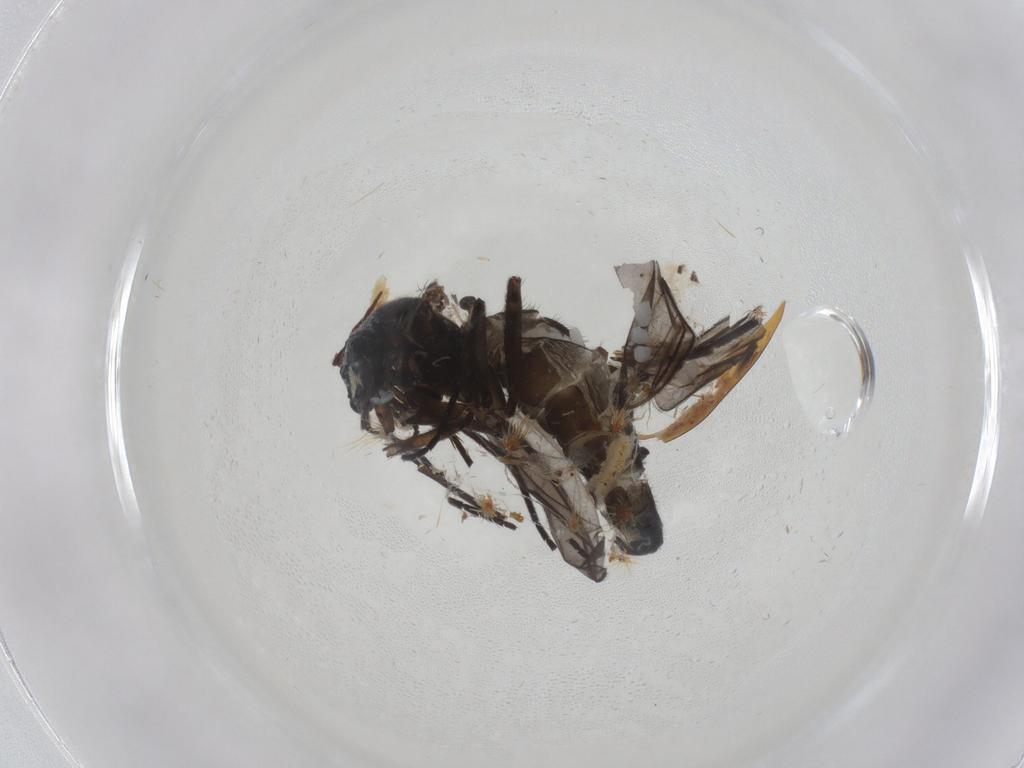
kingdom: Animalia
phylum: Arthropoda
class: Insecta
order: Diptera
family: Sciaridae
